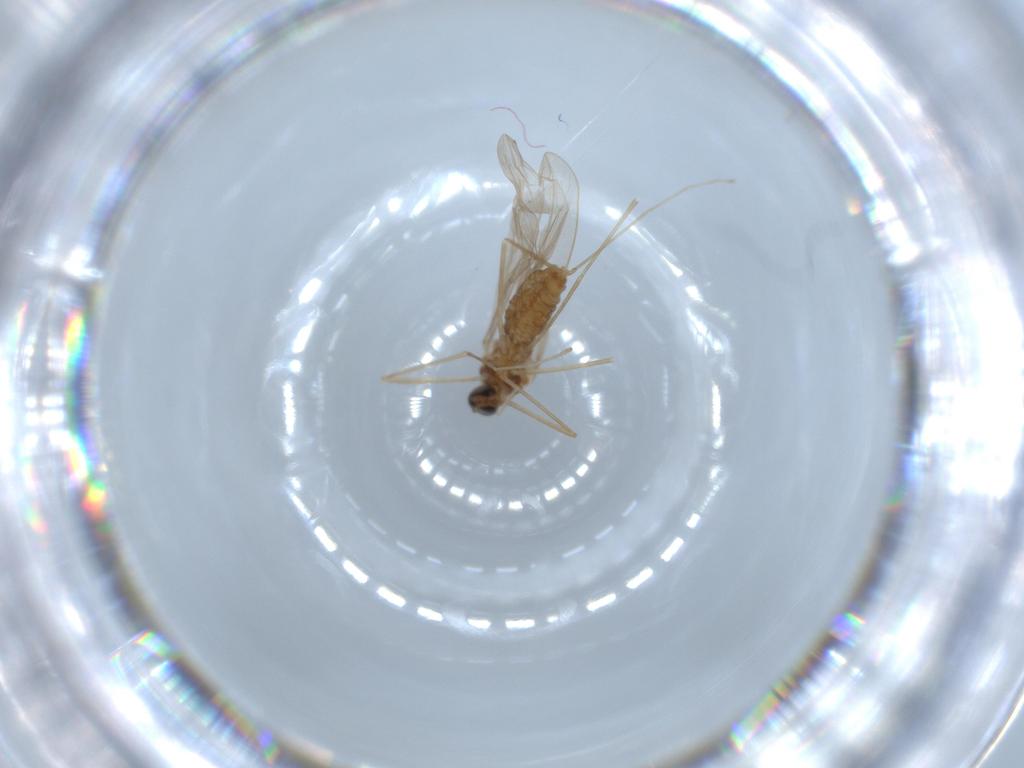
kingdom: Animalia
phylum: Arthropoda
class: Insecta
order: Diptera
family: Cecidomyiidae
